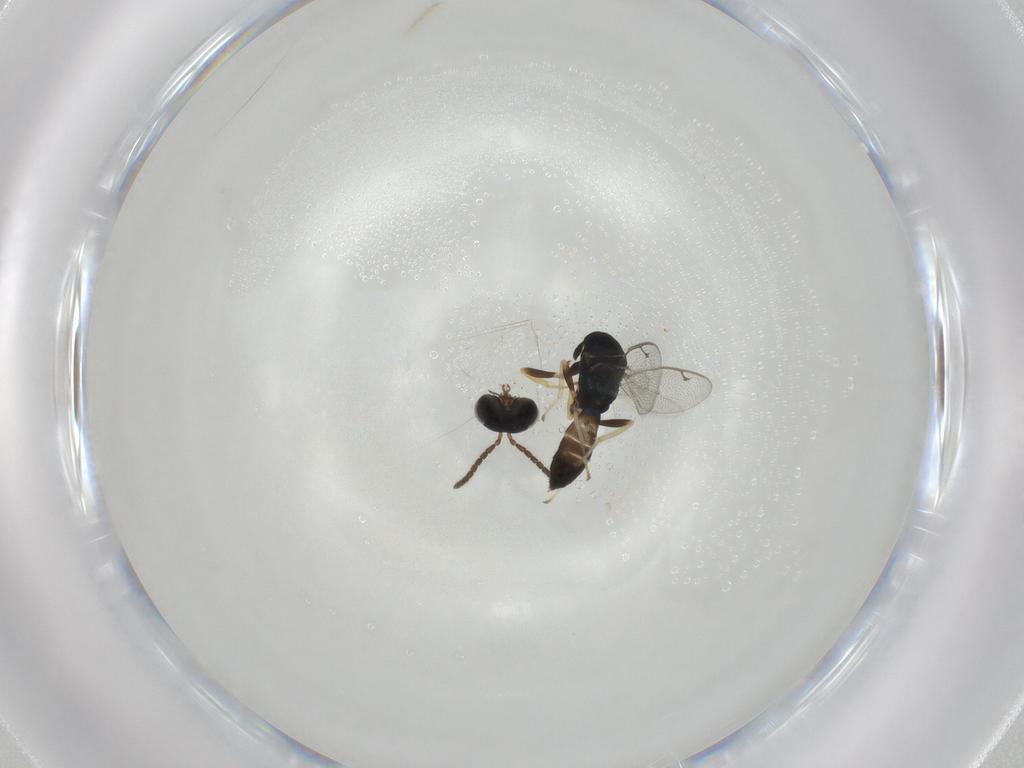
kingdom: Animalia
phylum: Arthropoda
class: Insecta
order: Hymenoptera
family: Pteromalidae
